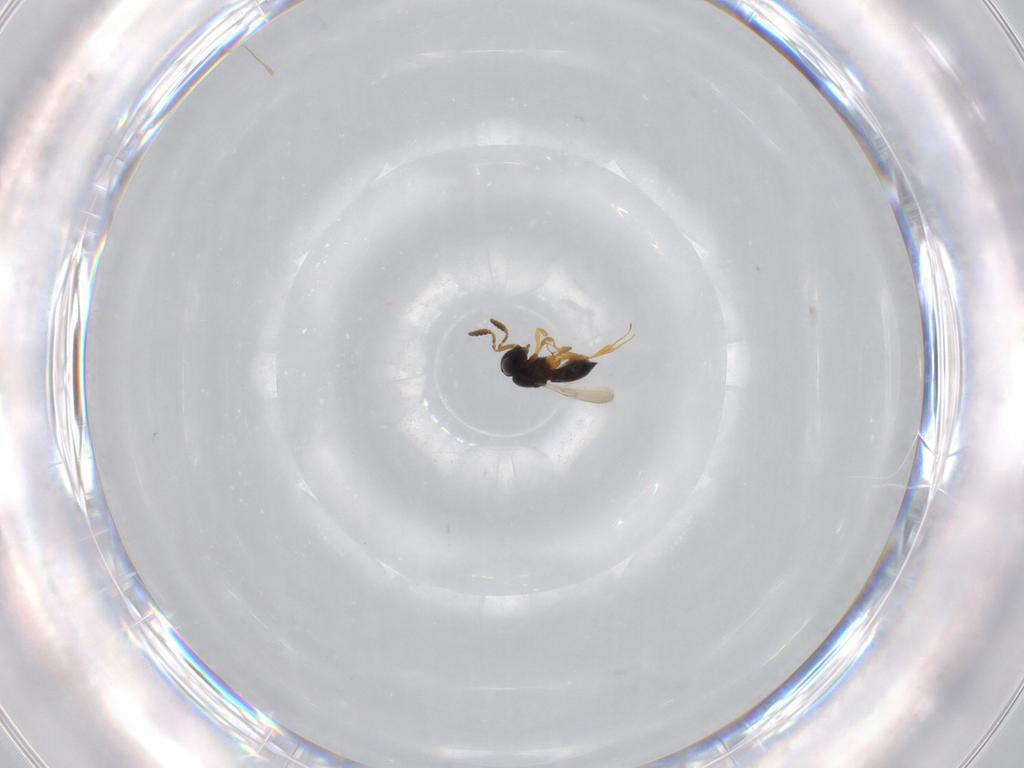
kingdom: Animalia
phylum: Arthropoda
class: Insecta
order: Hymenoptera
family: Scelionidae
